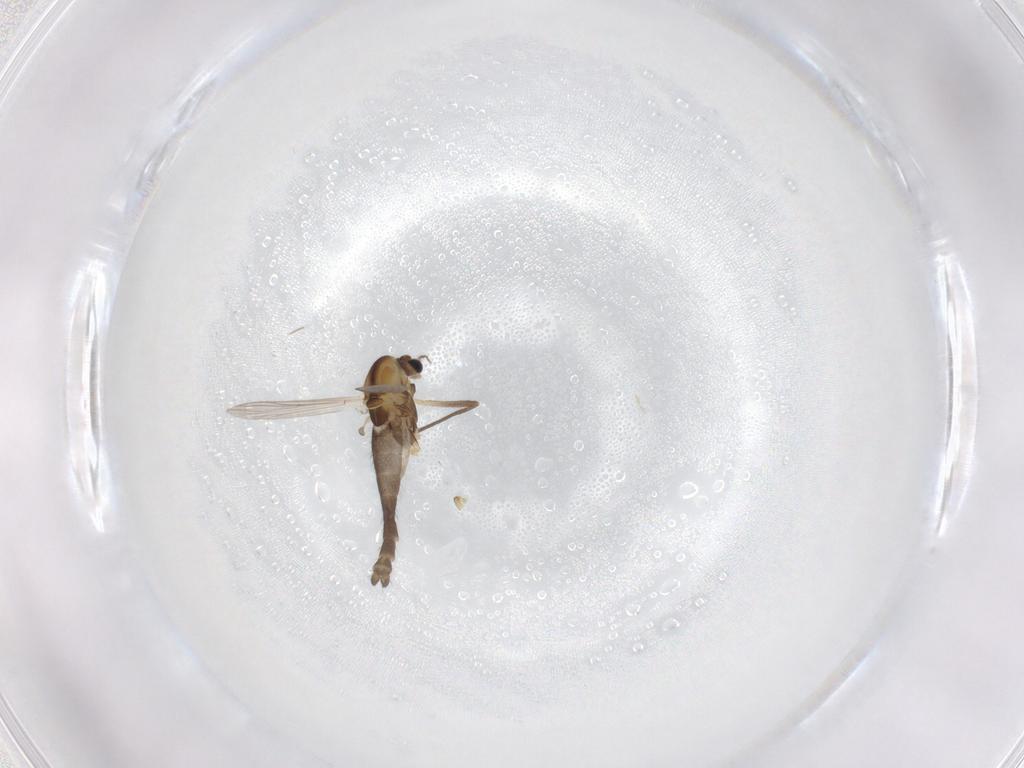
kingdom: Animalia
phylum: Arthropoda
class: Insecta
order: Diptera
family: Chironomidae
